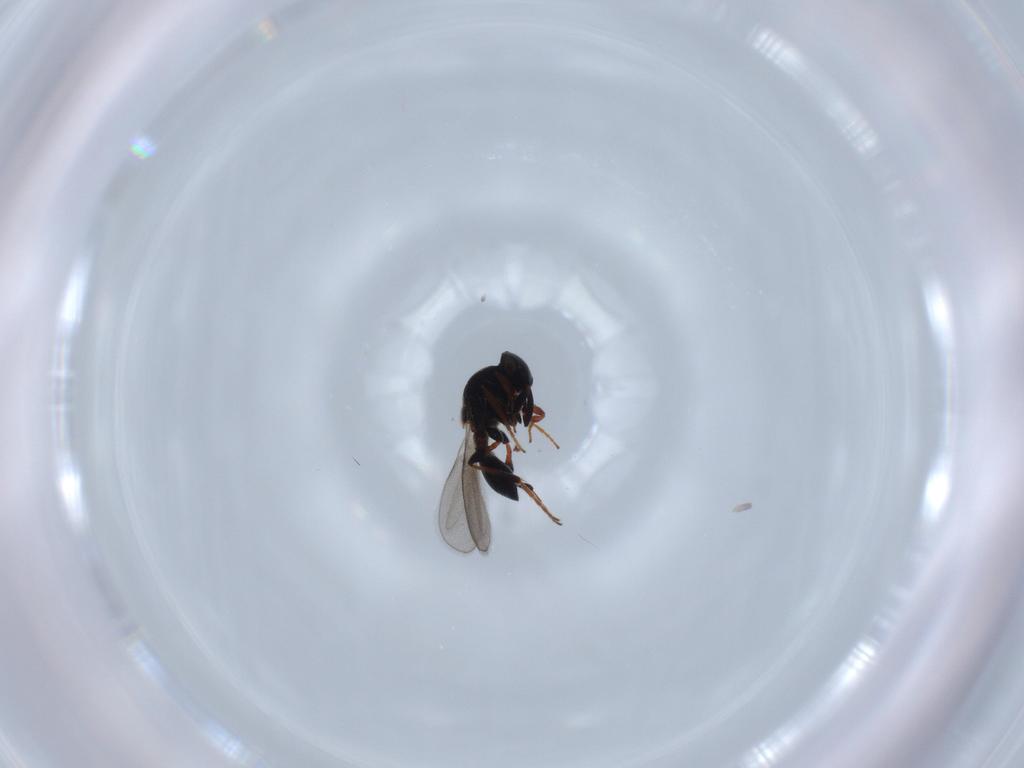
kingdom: Animalia
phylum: Arthropoda
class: Insecta
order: Hymenoptera
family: Platygastridae
